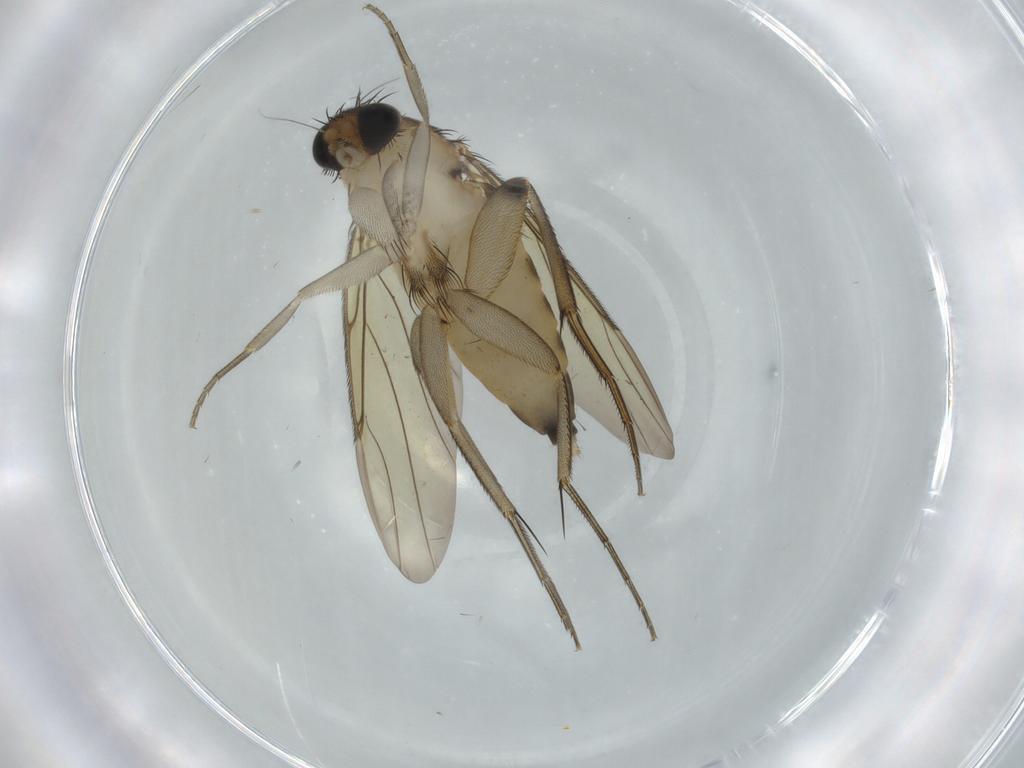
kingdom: Animalia
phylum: Arthropoda
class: Insecta
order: Diptera
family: Phoridae
